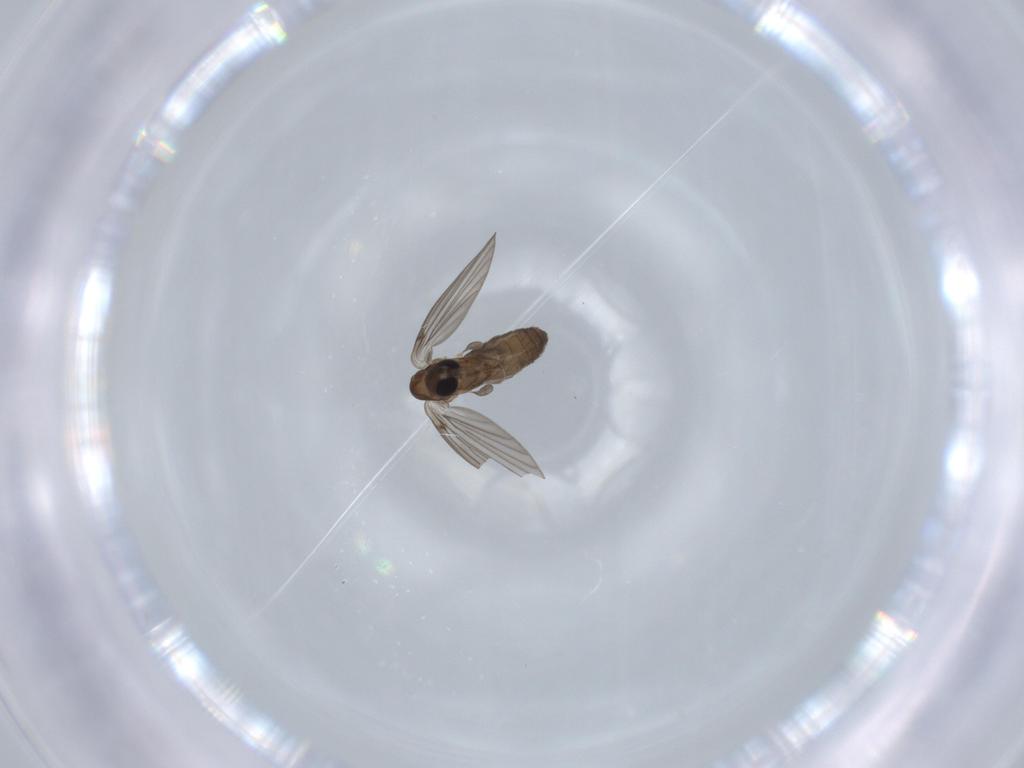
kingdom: Animalia
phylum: Arthropoda
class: Insecta
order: Diptera
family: Psychodidae
